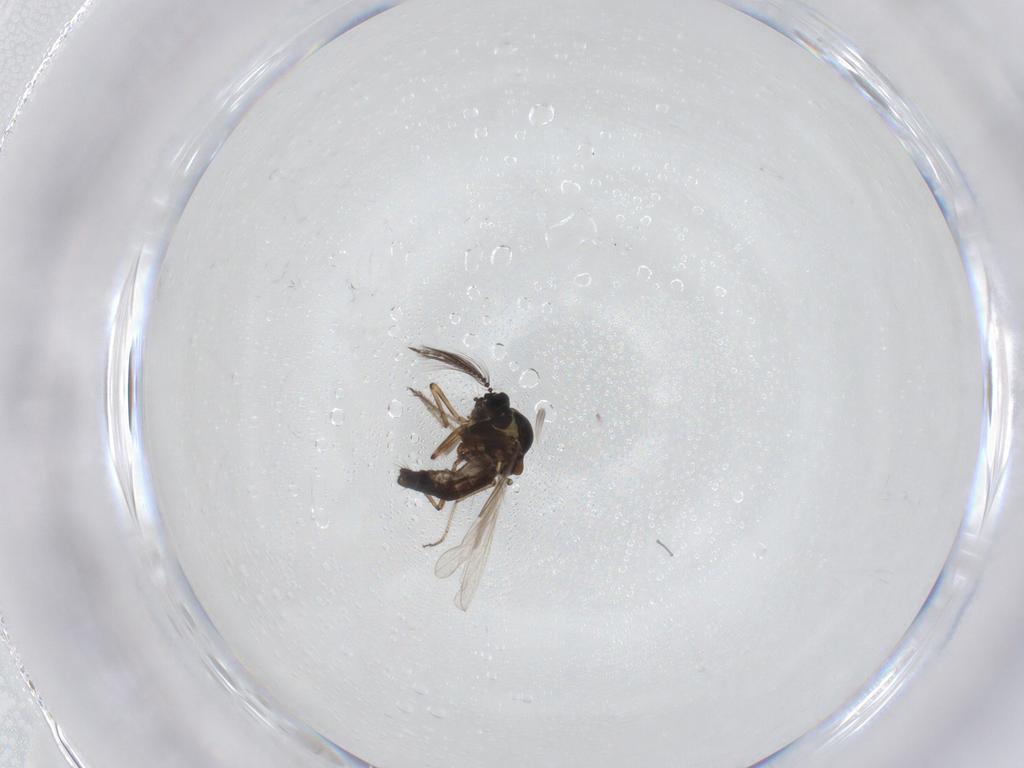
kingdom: Animalia
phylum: Arthropoda
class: Insecta
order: Diptera
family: Ceratopogonidae
